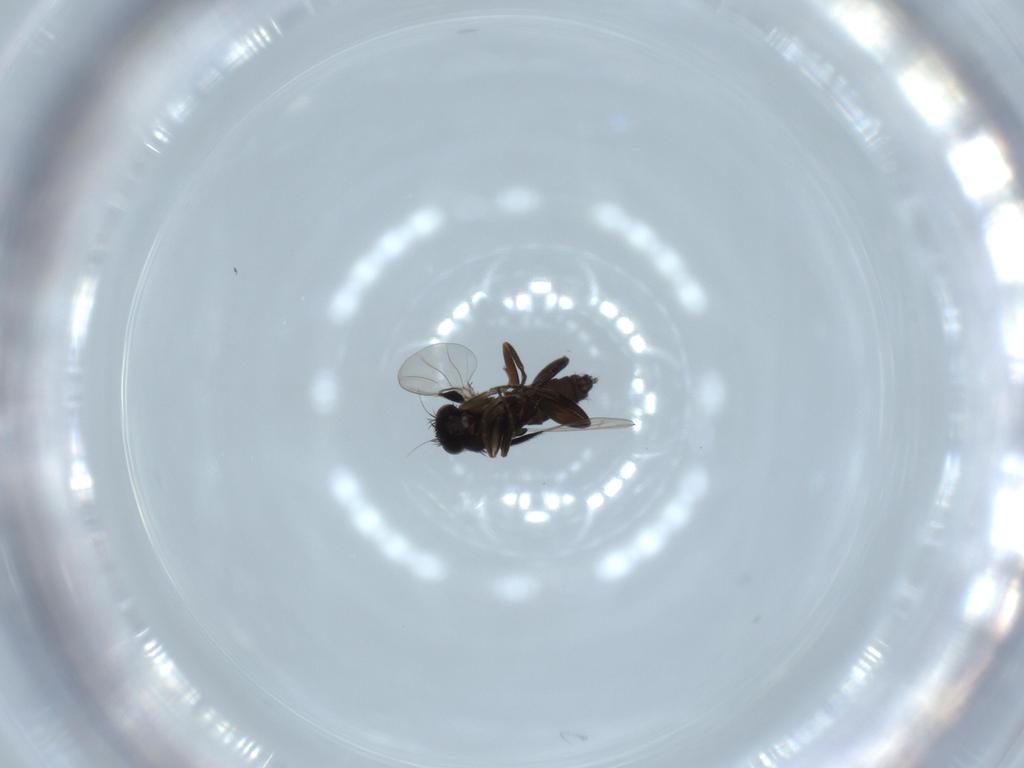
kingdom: Animalia
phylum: Arthropoda
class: Insecta
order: Diptera
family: Phoridae
